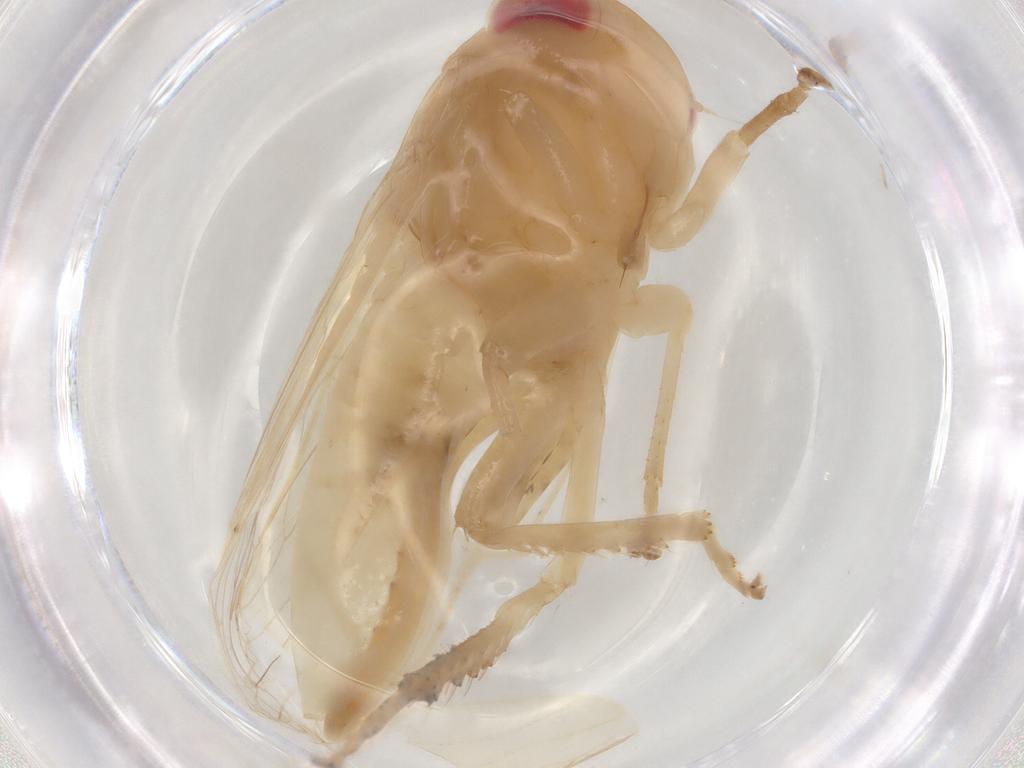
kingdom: Animalia
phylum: Arthropoda
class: Insecta
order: Hemiptera
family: Cicadellidae
